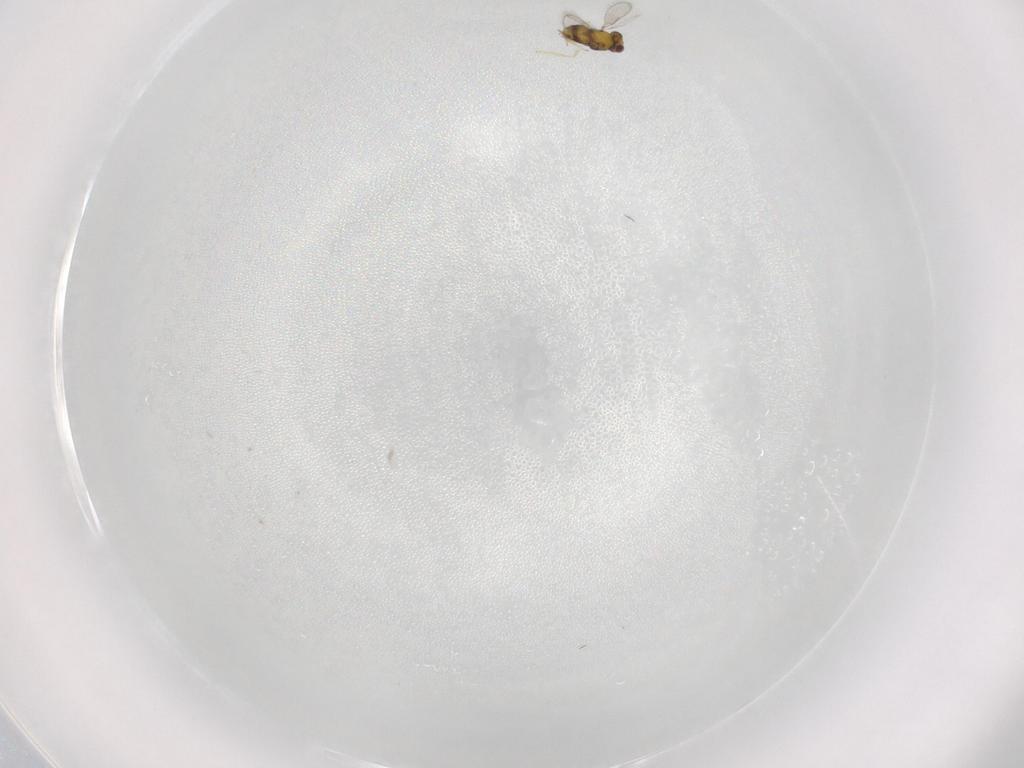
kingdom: Animalia
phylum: Arthropoda
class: Insecta
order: Hymenoptera
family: Aphelinidae
